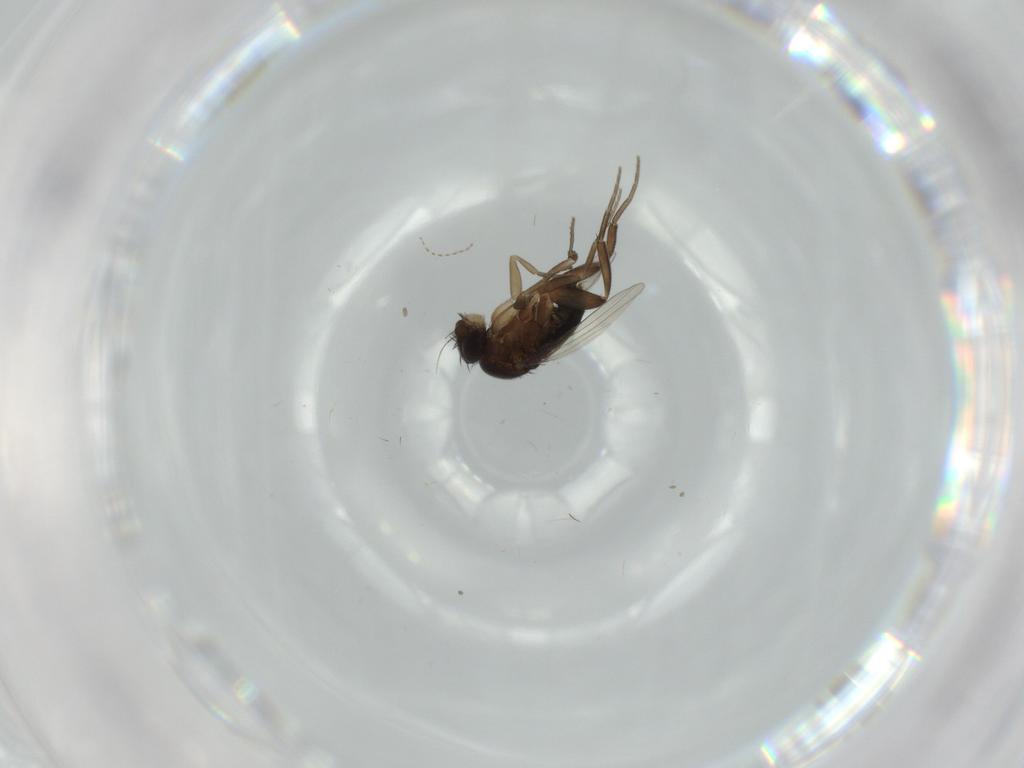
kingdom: Animalia
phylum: Arthropoda
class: Insecta
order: Diptera
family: Phoridae
